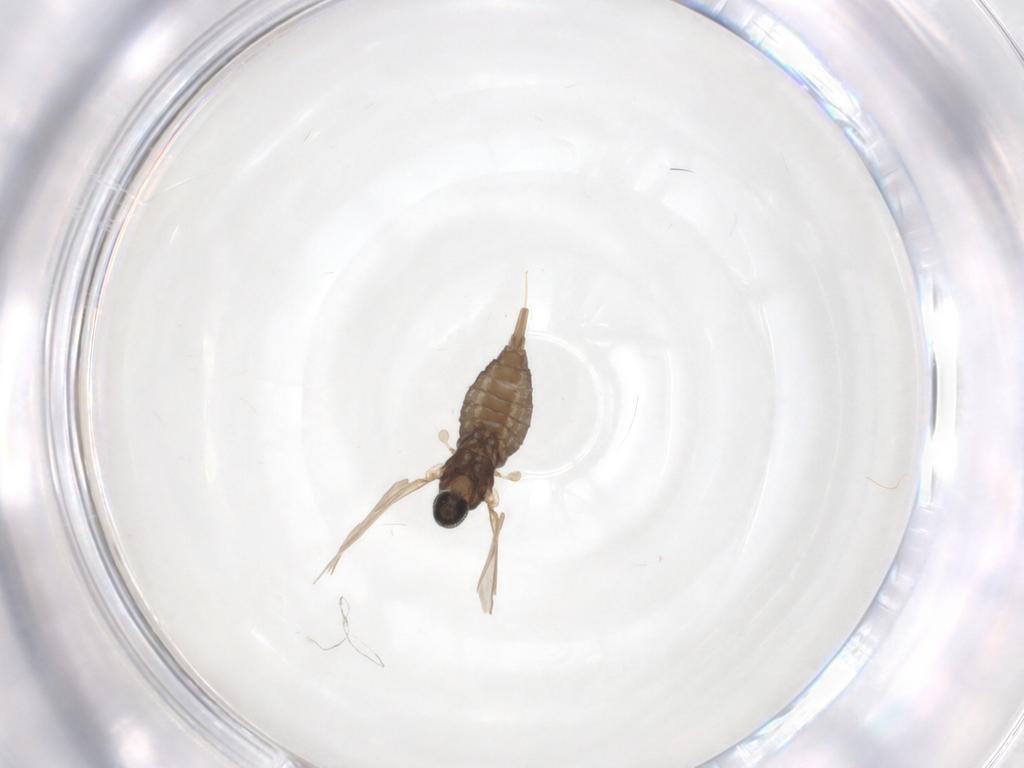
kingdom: Animalia
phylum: Arthropoda
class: Insecta
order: Diptera
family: Cecidomyiidae
